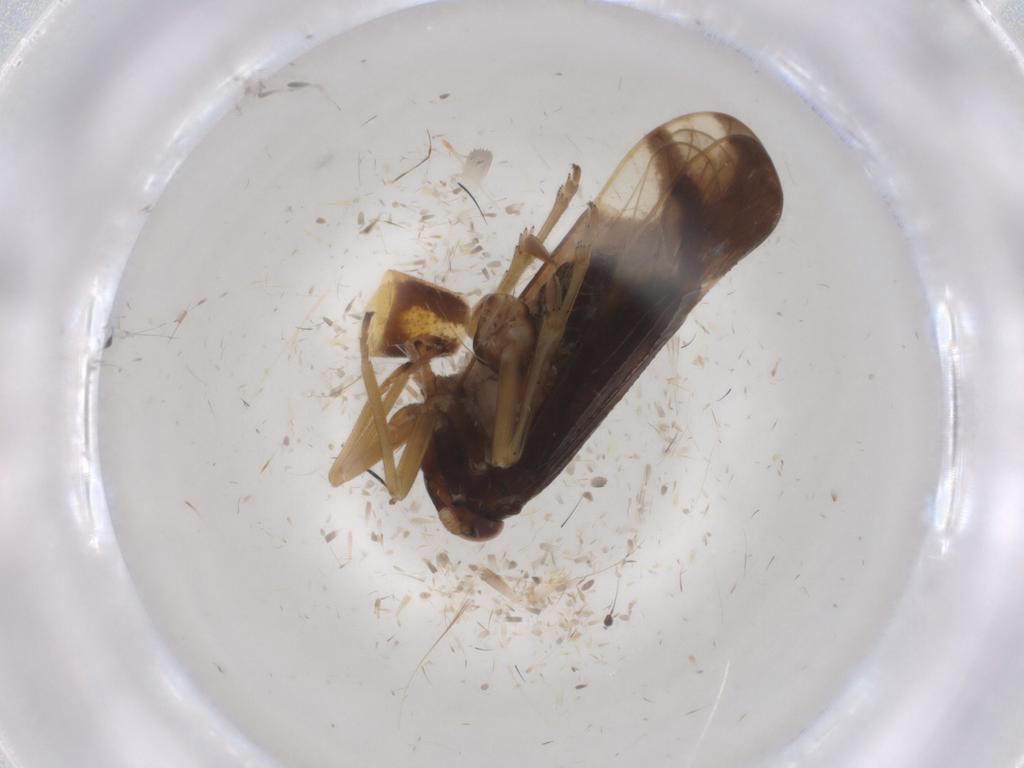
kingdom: Animalia
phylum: Arthropoda
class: Insecta
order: Hemiptera
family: Delphacidae
